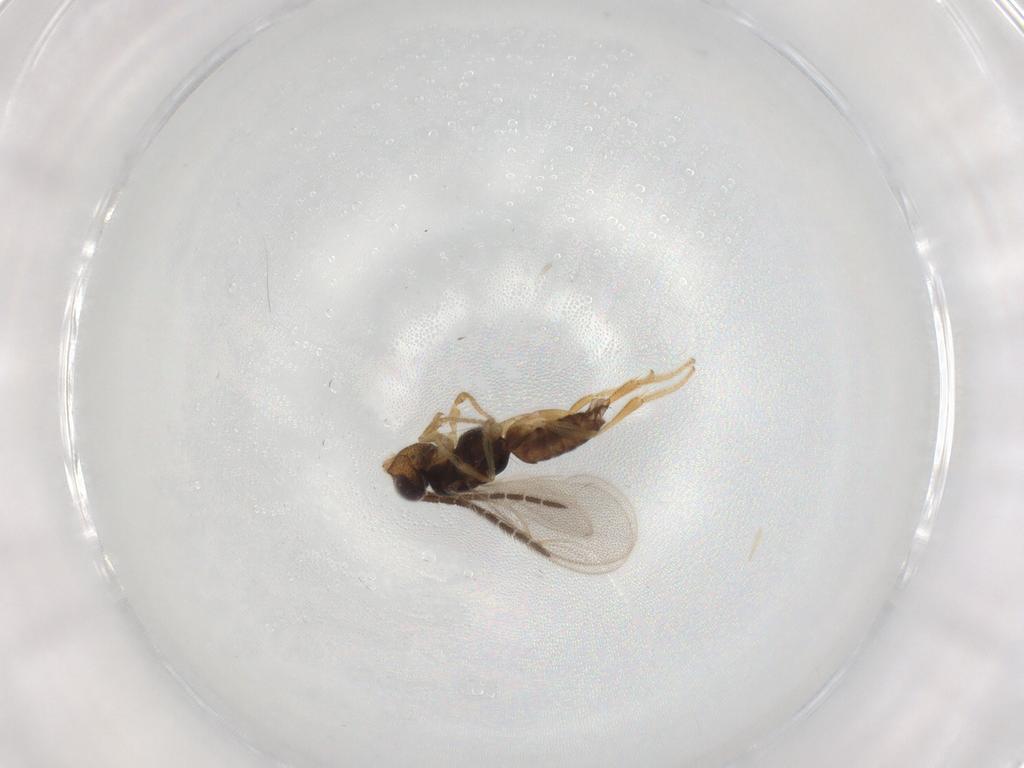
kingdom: Animalia
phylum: Arthropoda
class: Insecta
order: Hymenoptera
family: Dryinidae
